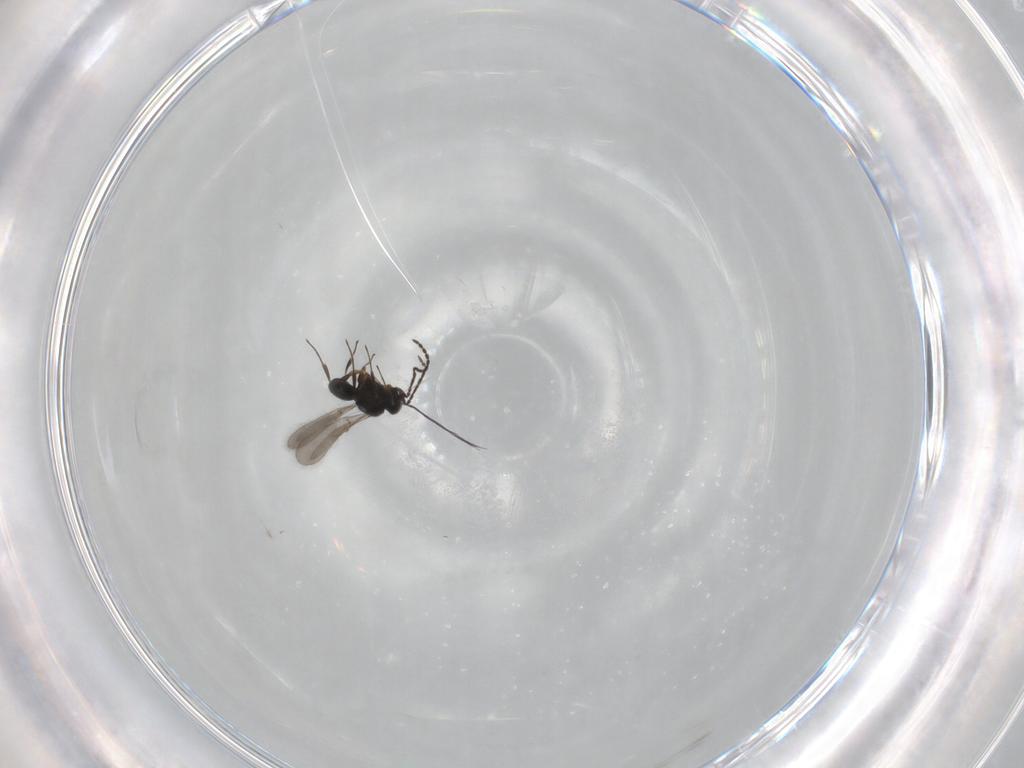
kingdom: Animalia
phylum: Arthropoda
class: Insecta
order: Hymenoptera
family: Scelionidae
